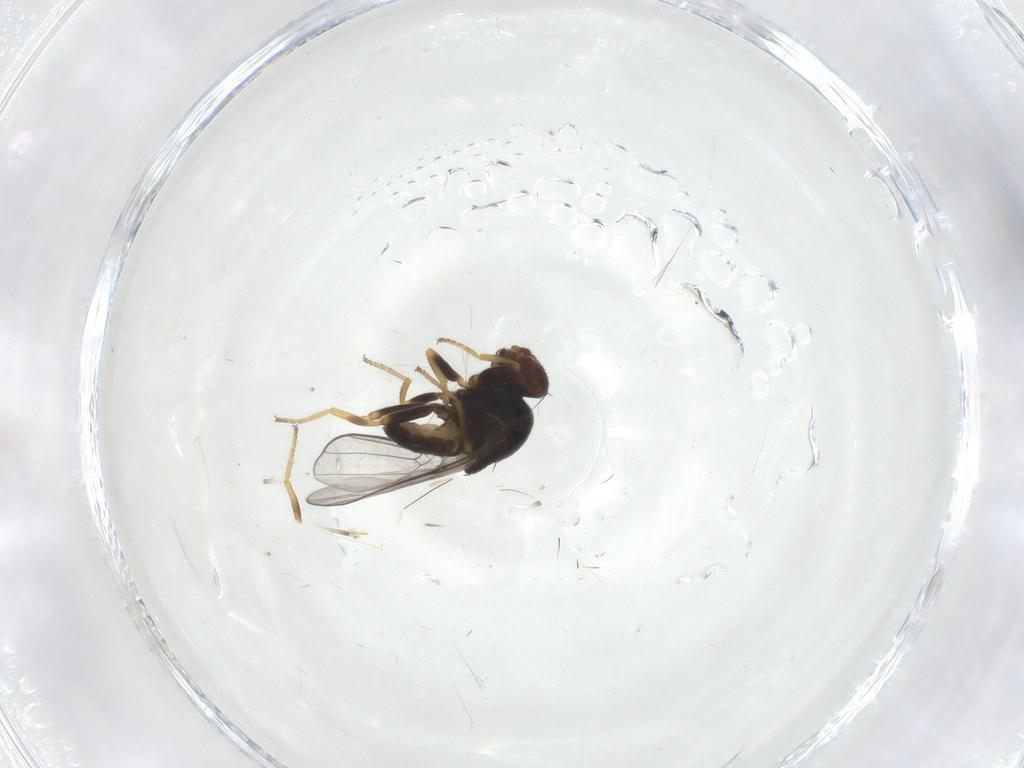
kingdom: Animalia
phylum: Arthropoda
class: Insecta
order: Diptera
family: Chloropidae
